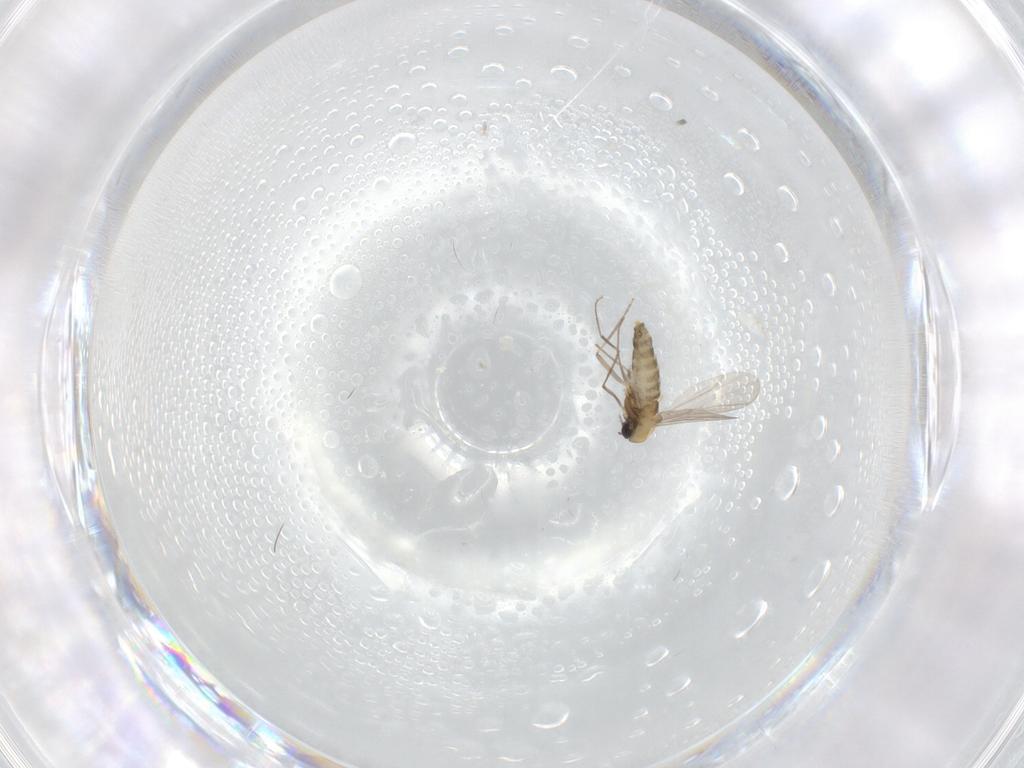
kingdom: Animalia
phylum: Arthropoda
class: Insecta
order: Diptera
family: Chironomidae
